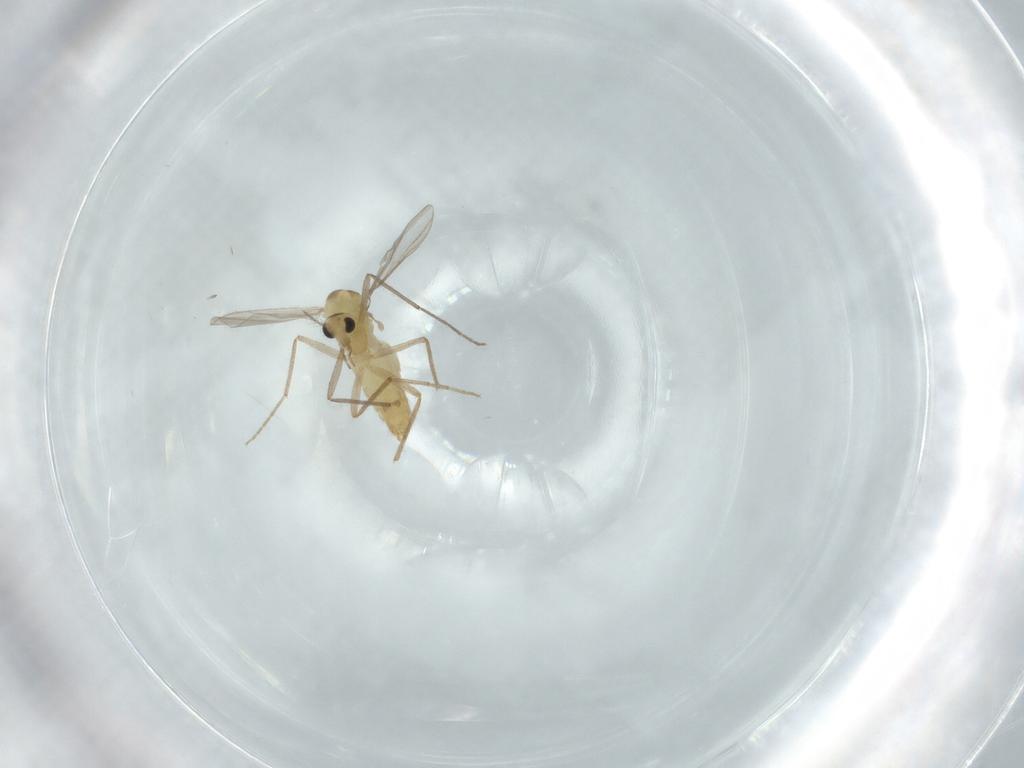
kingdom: Animalia
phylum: Arthropoda
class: Insecta
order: Diptera
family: Chironomidae
